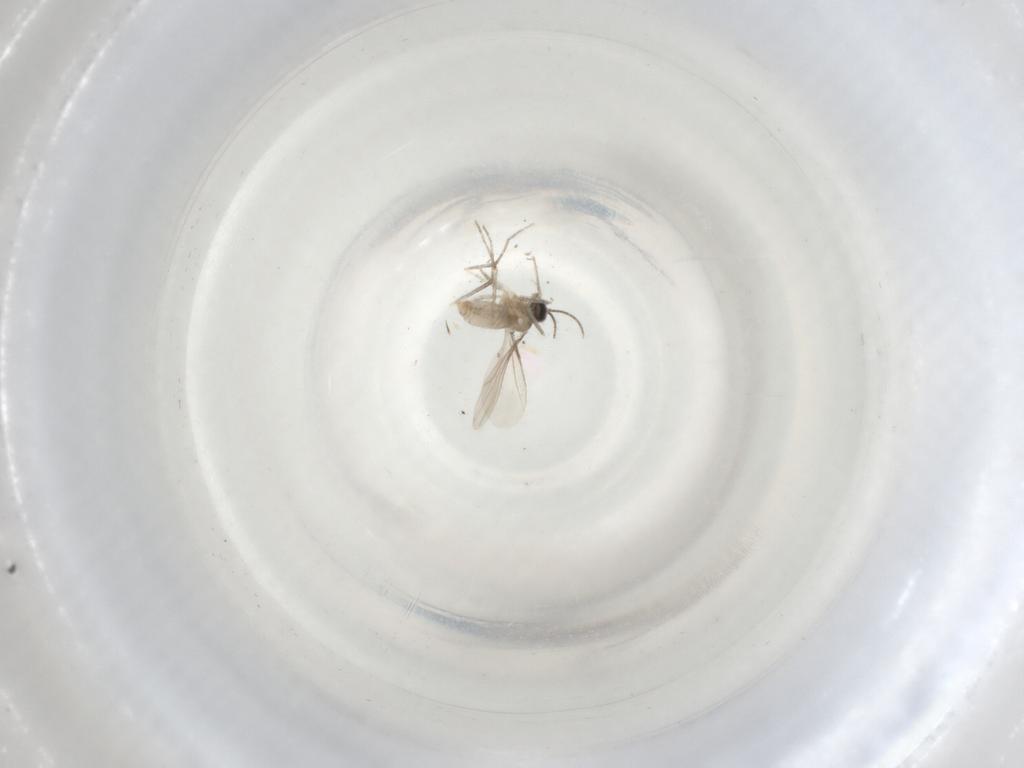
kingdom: Animalia
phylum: Arthropoda
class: Insecta
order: Diptera
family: Cecidomyiidae
